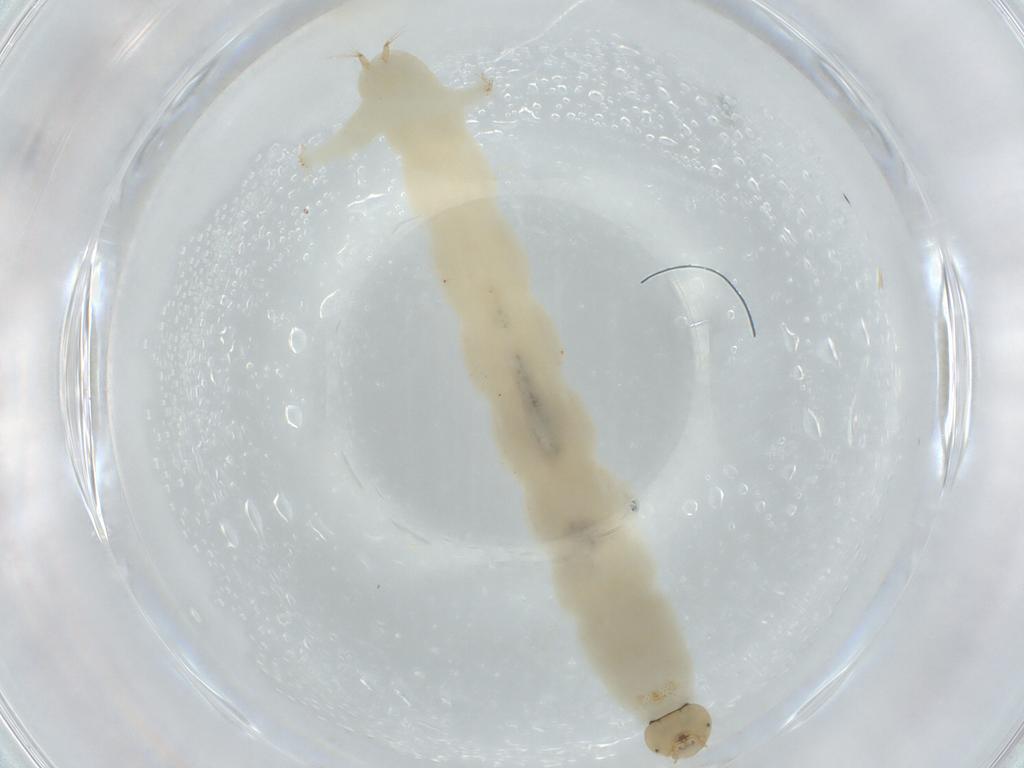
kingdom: Animalia
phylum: Arthropoda
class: Insecta
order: Diptera
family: Chironomidae
